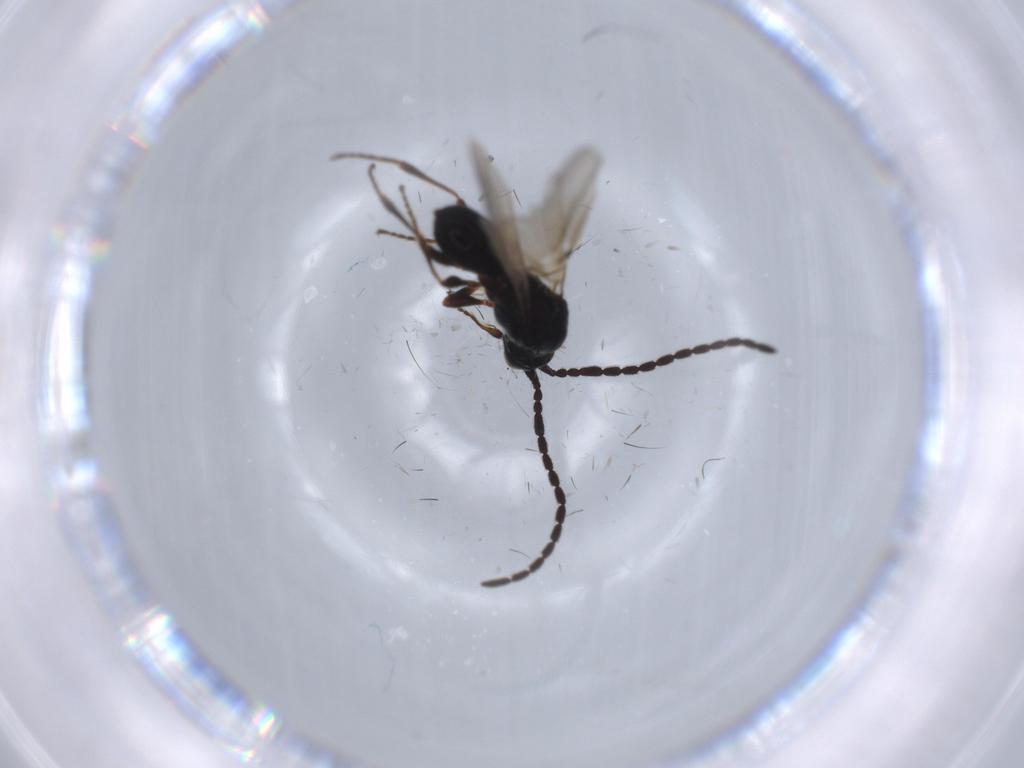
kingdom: Animalia
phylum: Arthropoda
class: Insecta
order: Hymenoptera
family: Diapriidae
